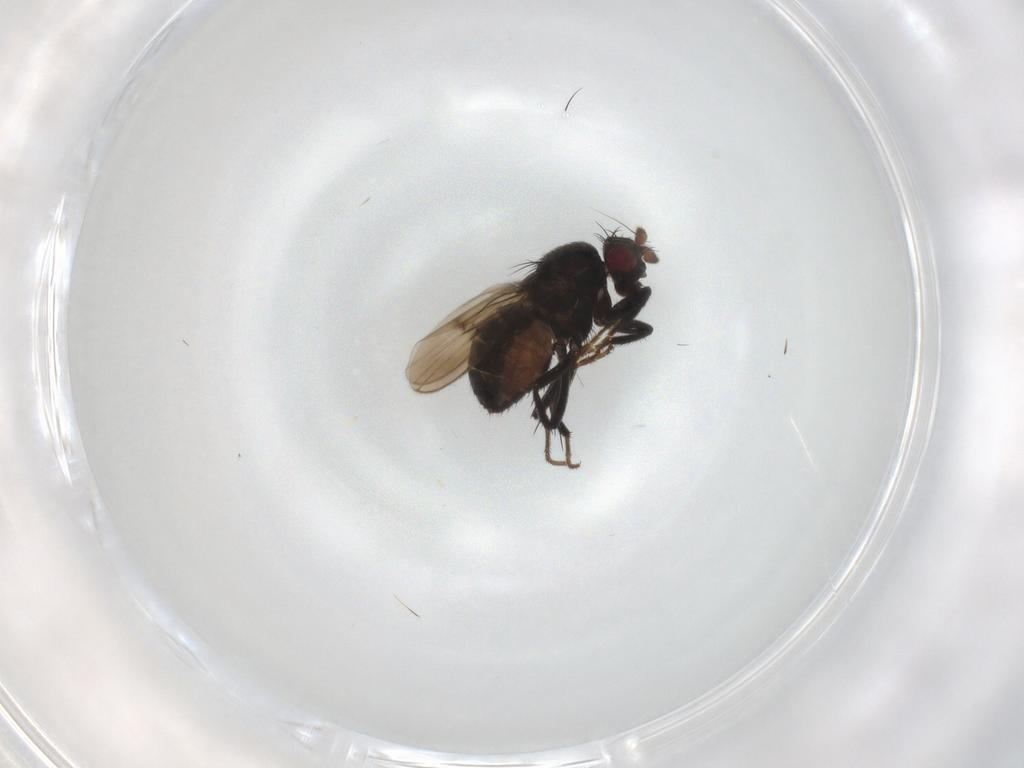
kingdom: Animalia
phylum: Arthropoda
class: Insecta
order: Diptera
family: Sphaeroceridae
